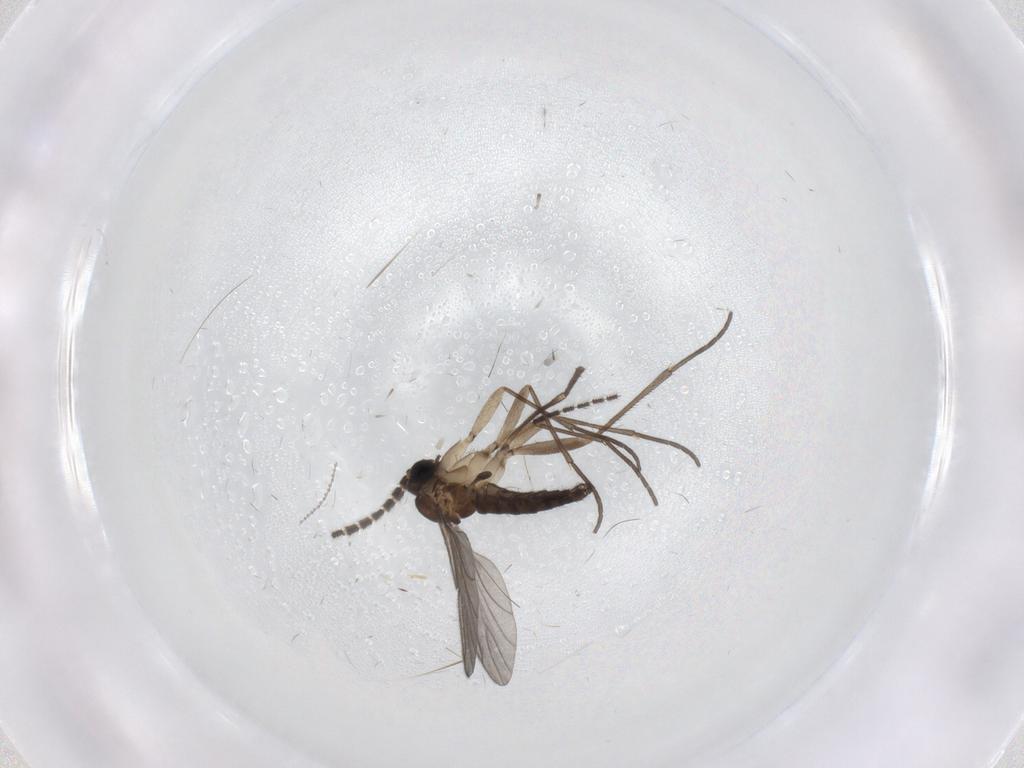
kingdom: Animalia
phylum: Arthropoda
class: Insecta
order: Diptera
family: Sciaridae
